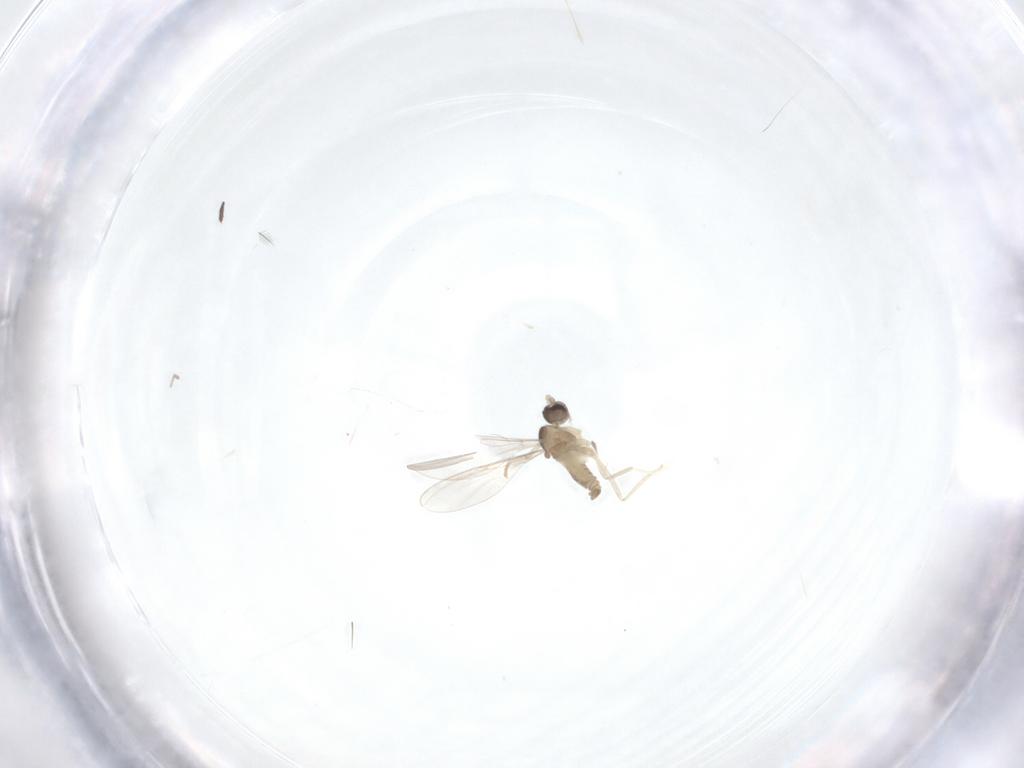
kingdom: Animalia
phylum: Arthropoda
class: Insecta
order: Diptera
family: Cecidomyiidae
